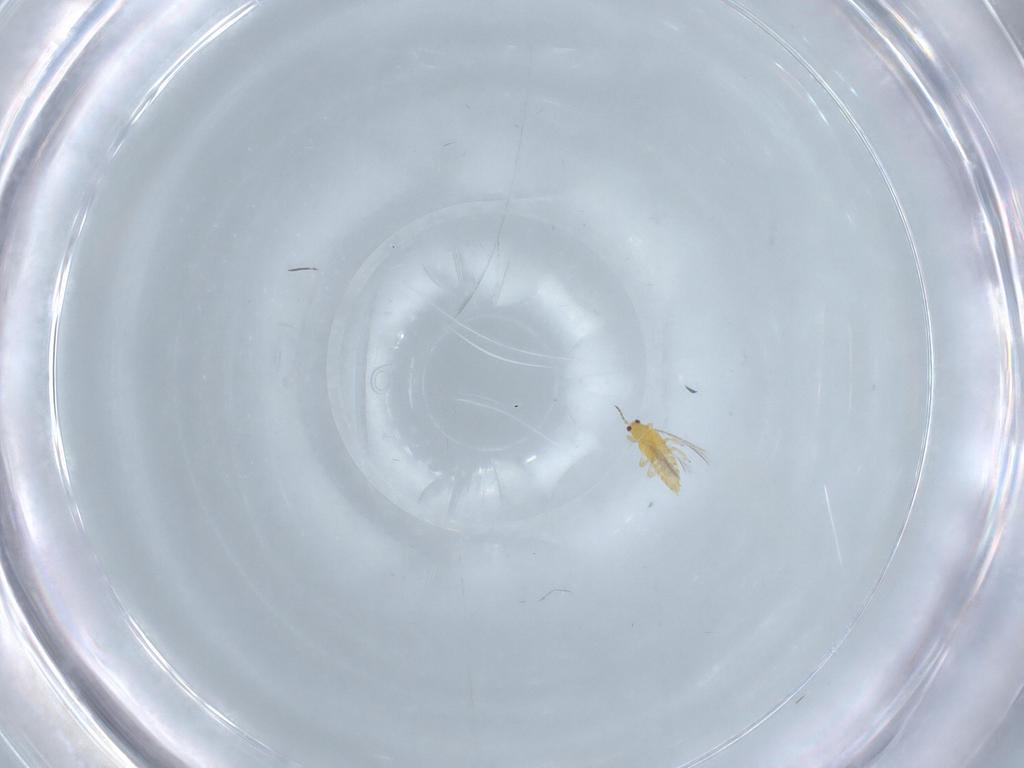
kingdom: Animalia
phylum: Arthropoda
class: Insecta
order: Thysanoptera
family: Thripidae
